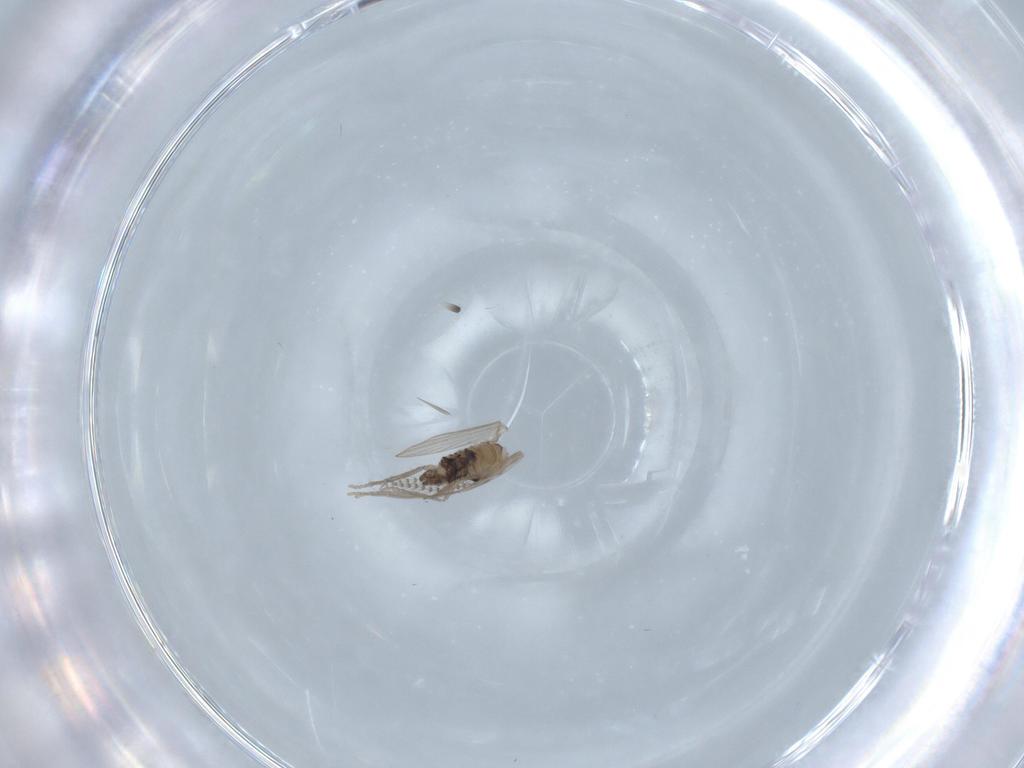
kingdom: Animalia
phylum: Arthropoda
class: Insecta
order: Diptera
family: Psychodidae
